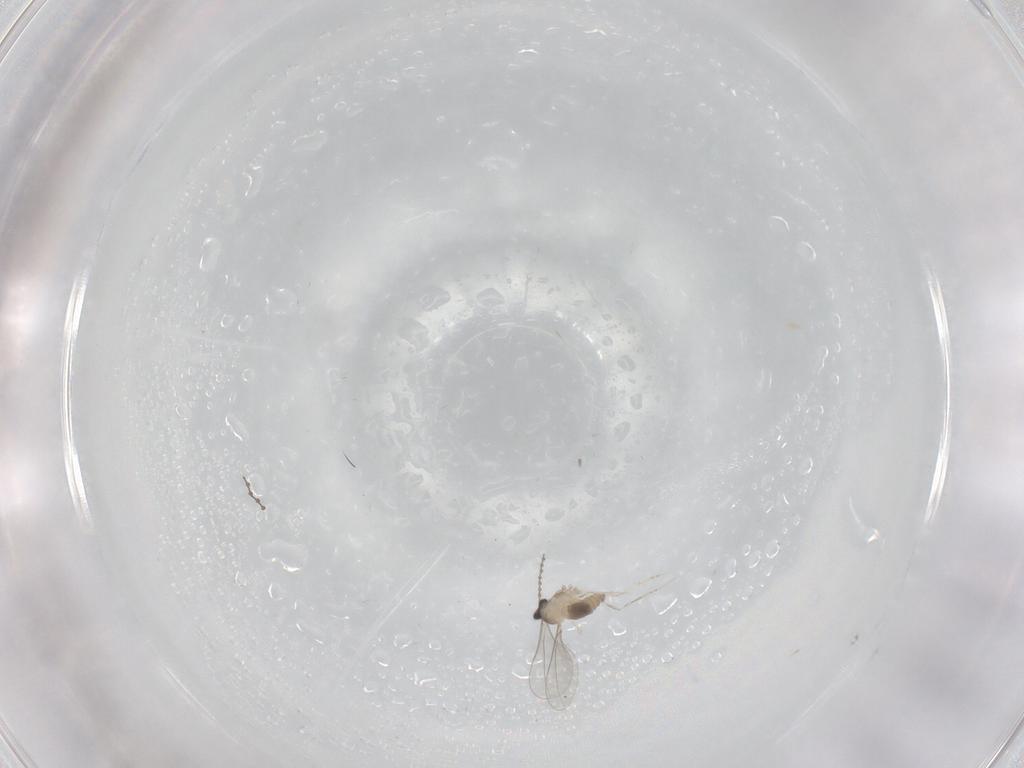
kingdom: Animalia
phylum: Arthropoda
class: Insecta
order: Diptera
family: Cecidomyiidae
